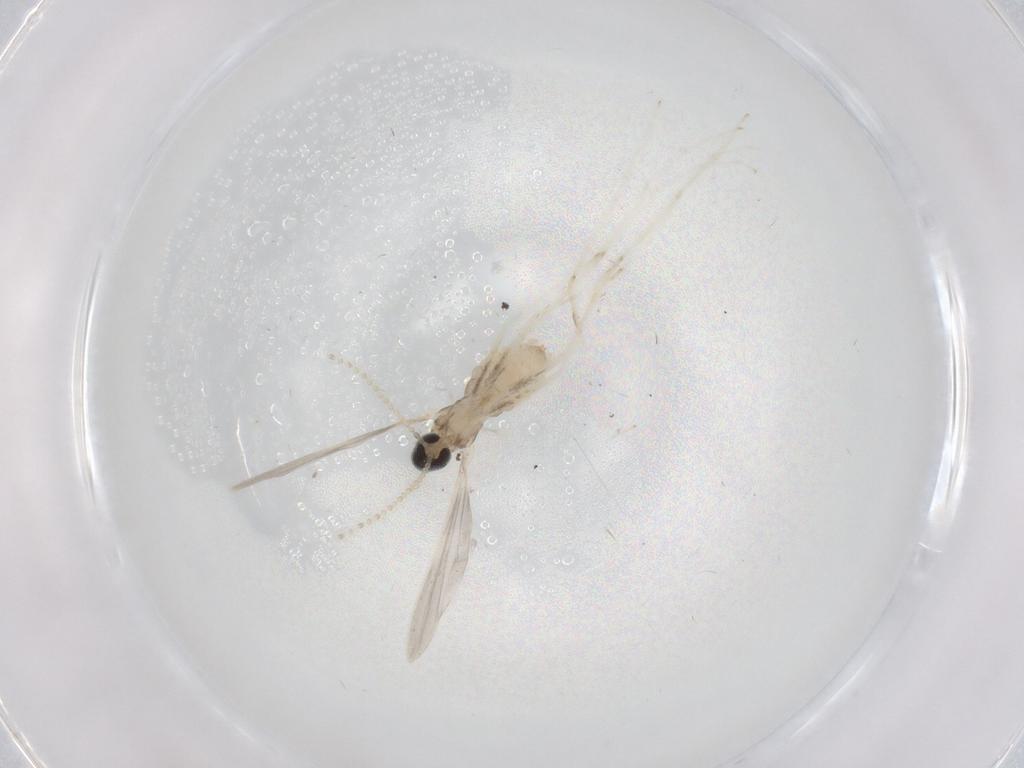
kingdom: Animalia
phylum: Arthropoda
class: Insecta
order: Diptera
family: Cecidomyiidae
